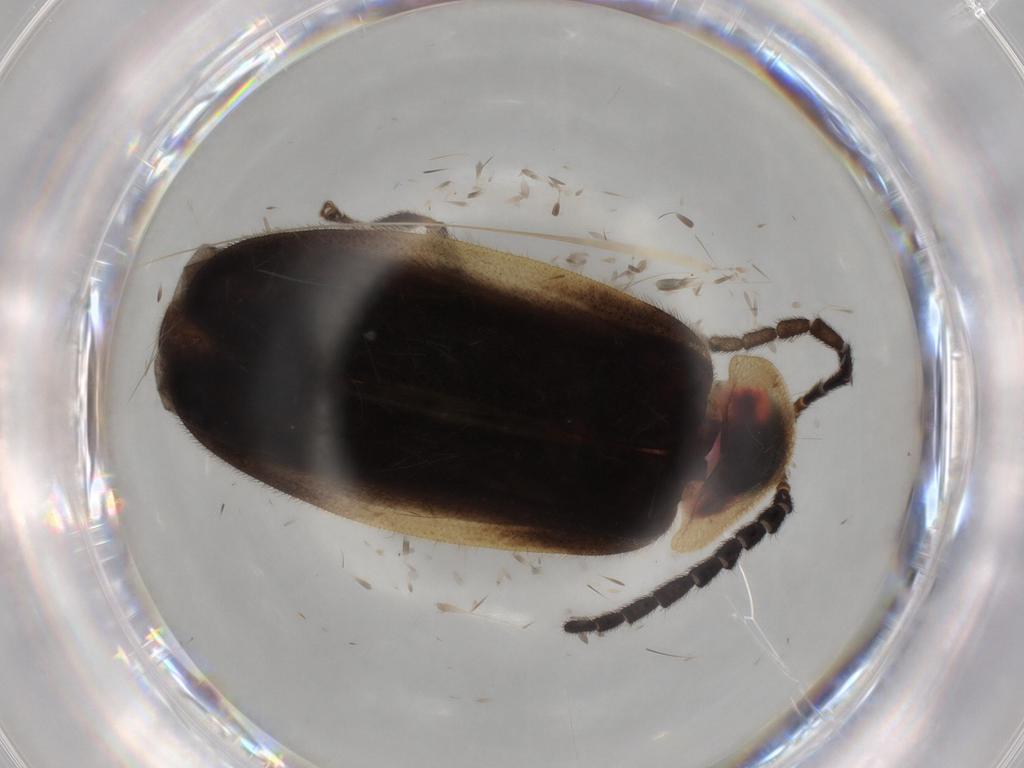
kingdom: Animalia
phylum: Arthropoda
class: Insecta
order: Coleoptera
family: Lampyridae
